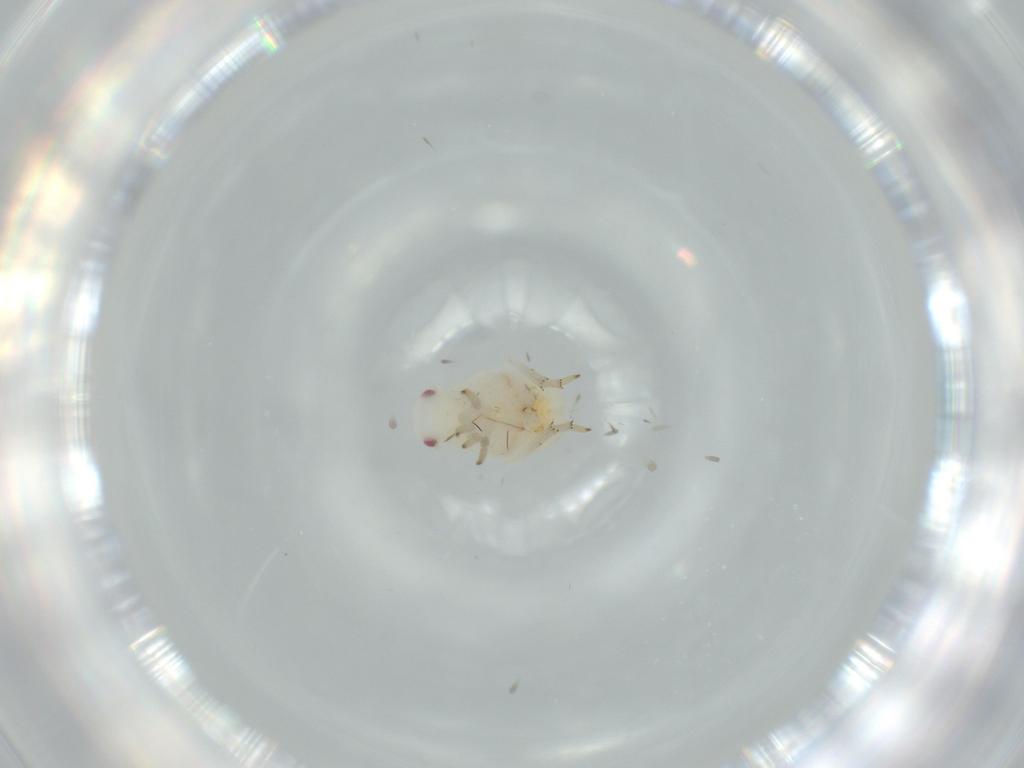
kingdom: Animalia
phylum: Arthropoda
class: Insecta
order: Hemiptera
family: Flatidae
